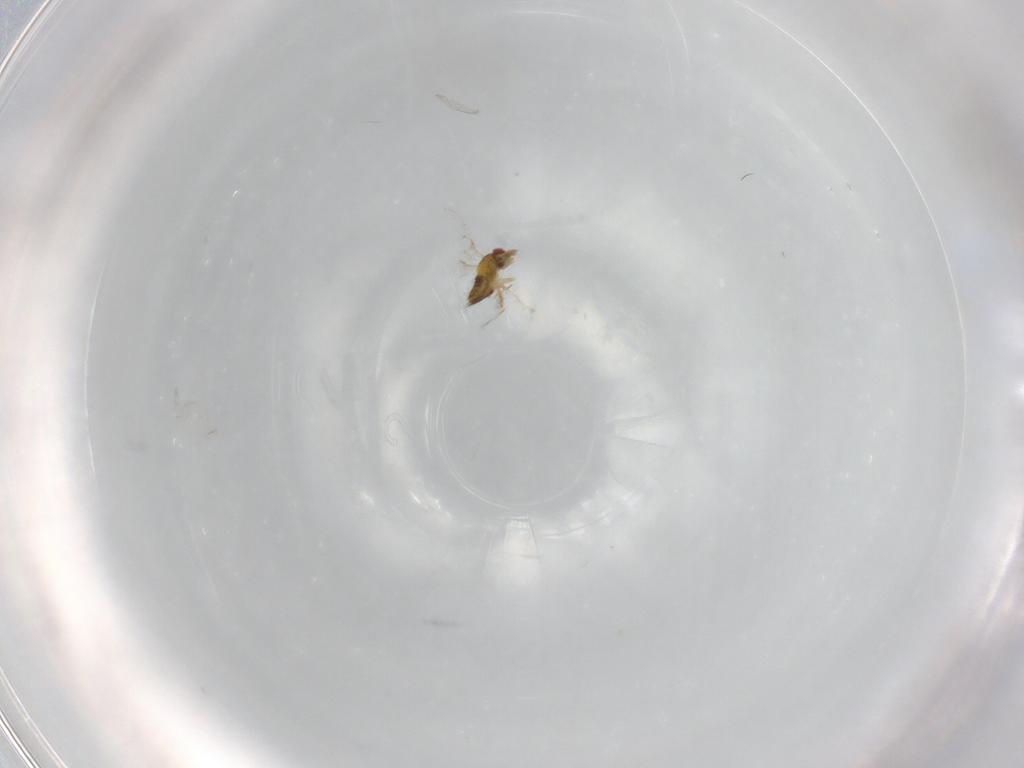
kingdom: Animalia
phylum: Arthropoda
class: Insecta
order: Hymenoptera
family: Trichogrammatidae
